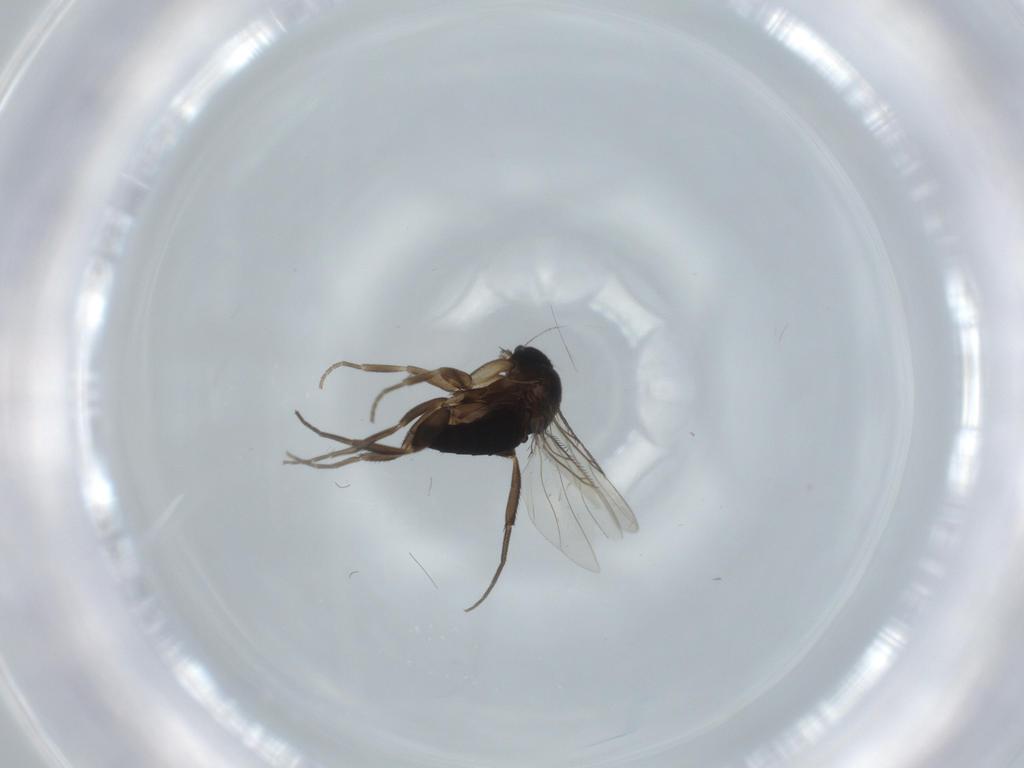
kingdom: Animalia
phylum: Arthropoda
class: Insecta
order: Diptera
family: Phoridae
